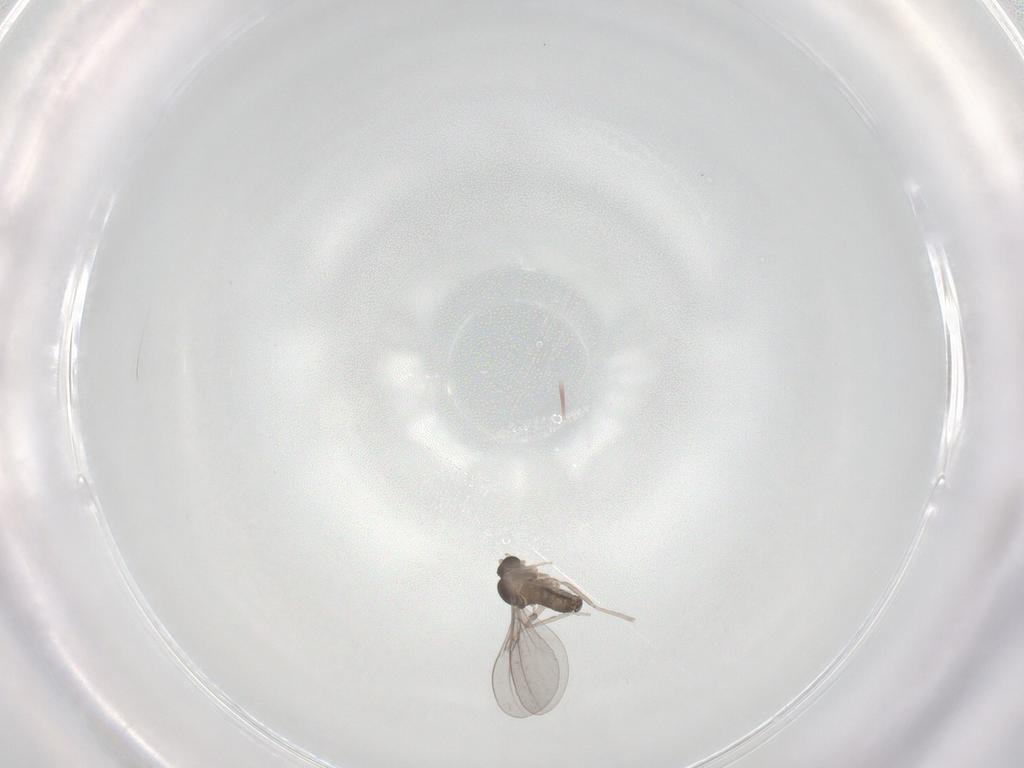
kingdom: Animalia
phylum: Arthropoda
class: Insecta
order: Diptera
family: Cecidomyiidae
